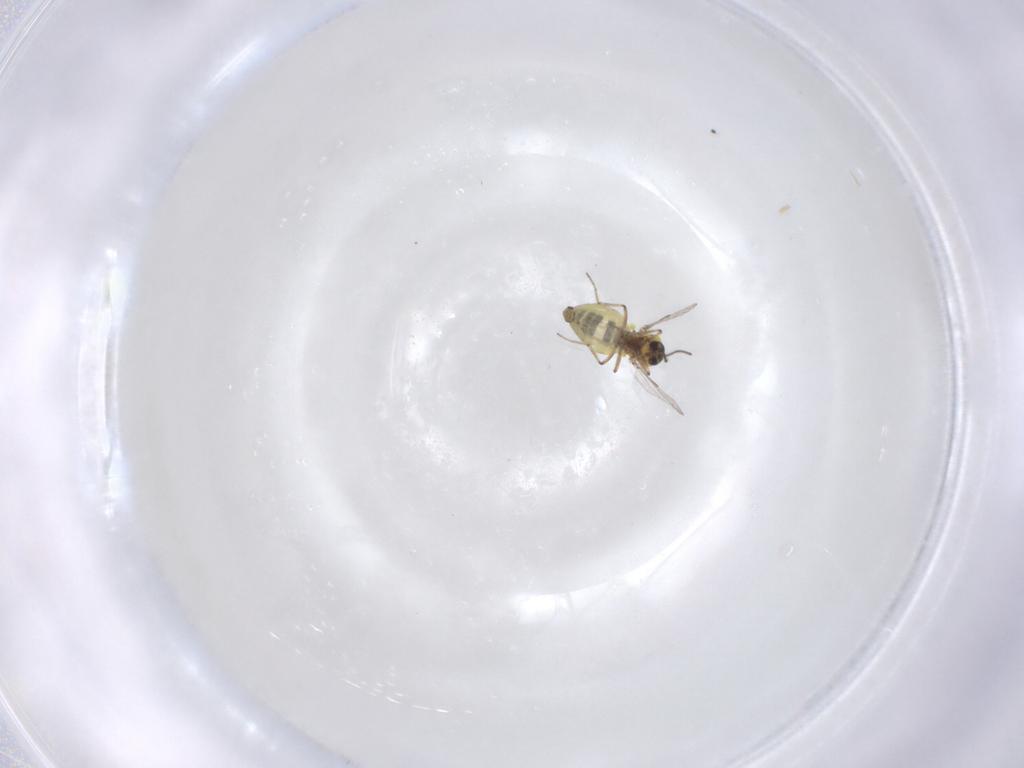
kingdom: Animalia
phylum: Arthropoda
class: Insecta
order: Diptera
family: Ceratopogonidae
